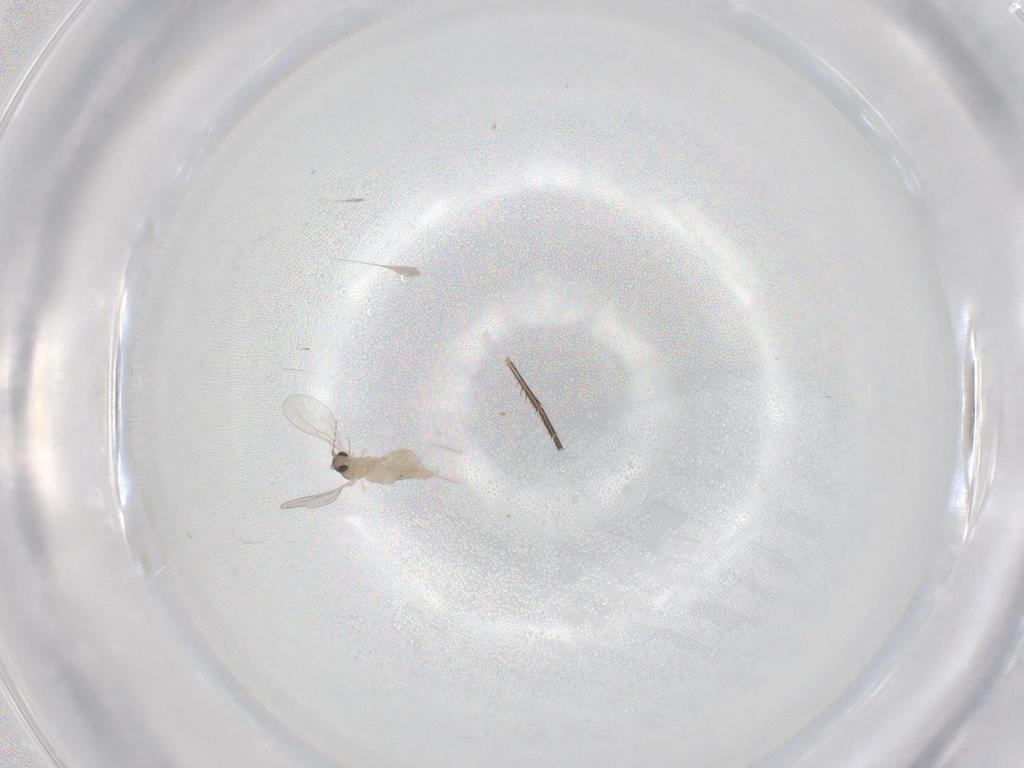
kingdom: Animalia
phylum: Arthropoda
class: Insecta
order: Diptera
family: Cecidomyiidae
